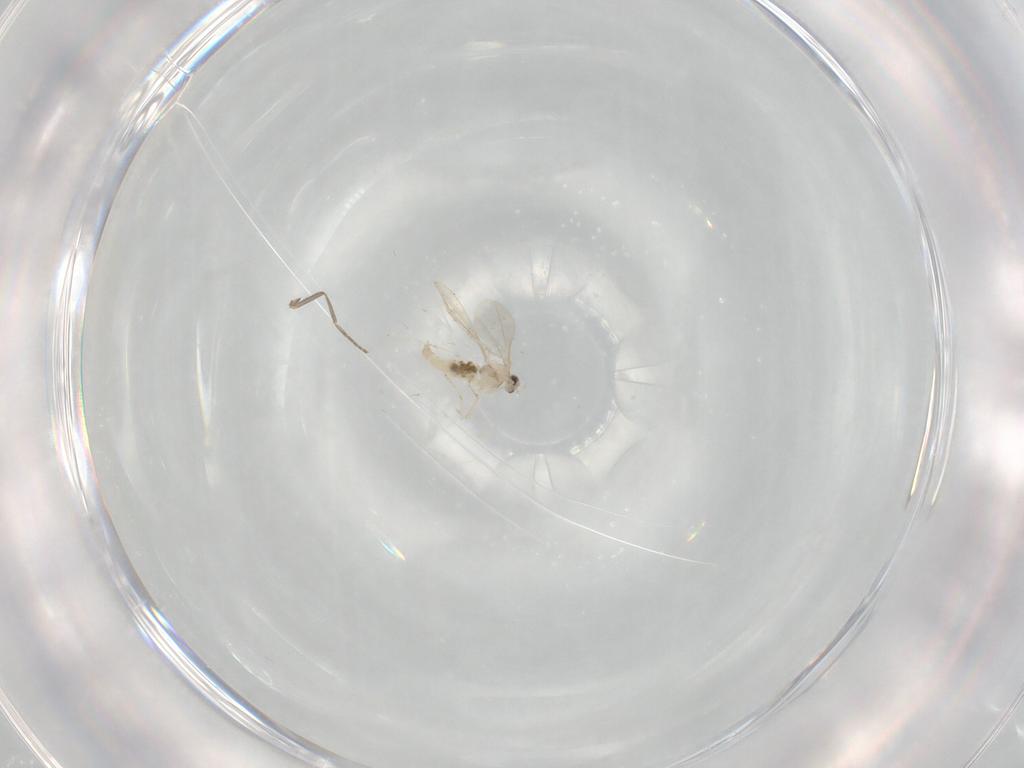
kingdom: Animalia
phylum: Arthropoda
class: Insecta
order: Diptera
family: Phoridae
